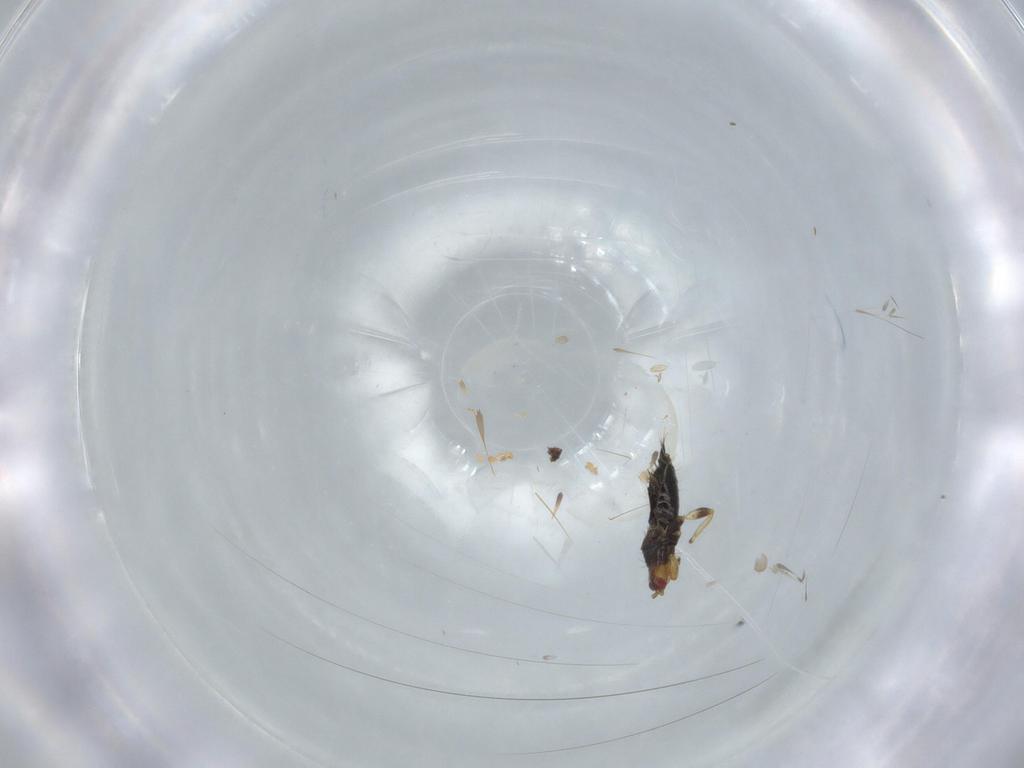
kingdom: Animalia
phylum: Arthropoda
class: Insecta
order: Thysanoptera
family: Phlaeothripidae
